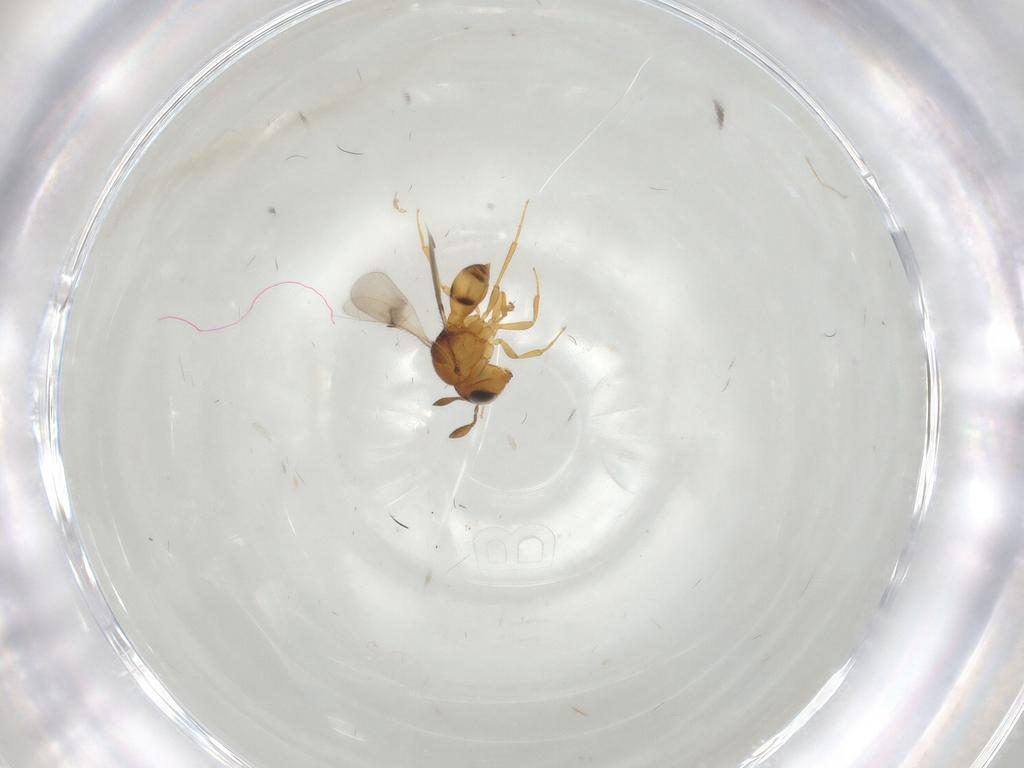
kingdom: Animalia
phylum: Arthropoda
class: Insecta
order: Hymenoptera
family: Scelionidae
